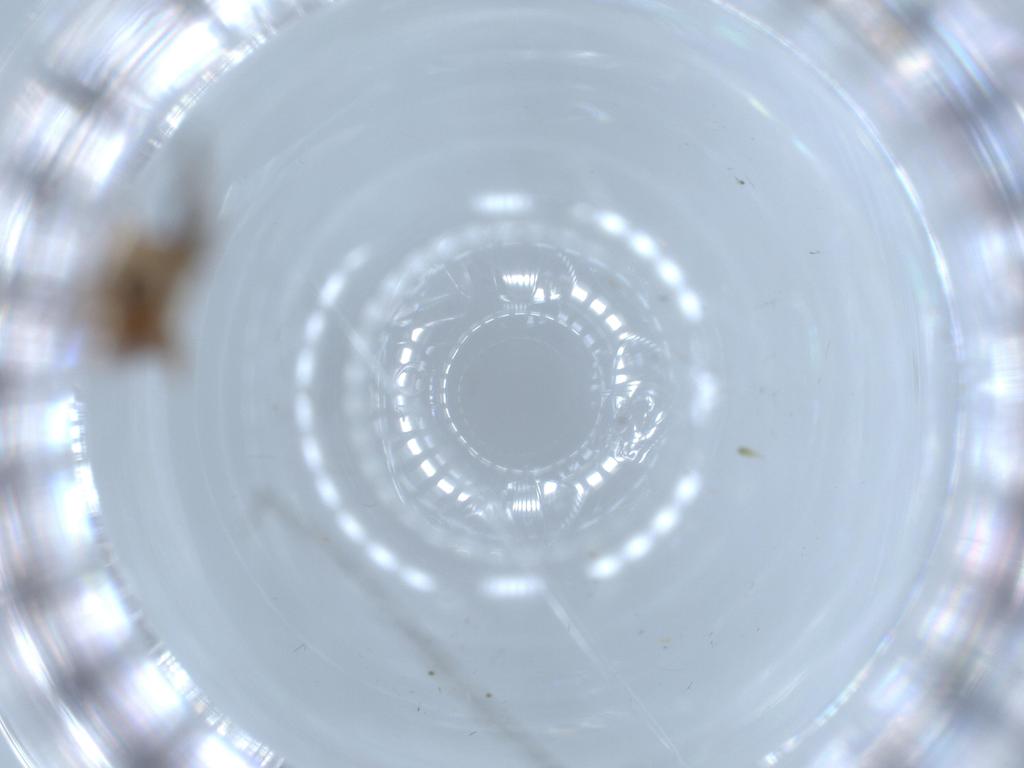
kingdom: Animalia
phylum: Arthropoda
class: Insecta
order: Diptera
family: Cecidomyiidae
